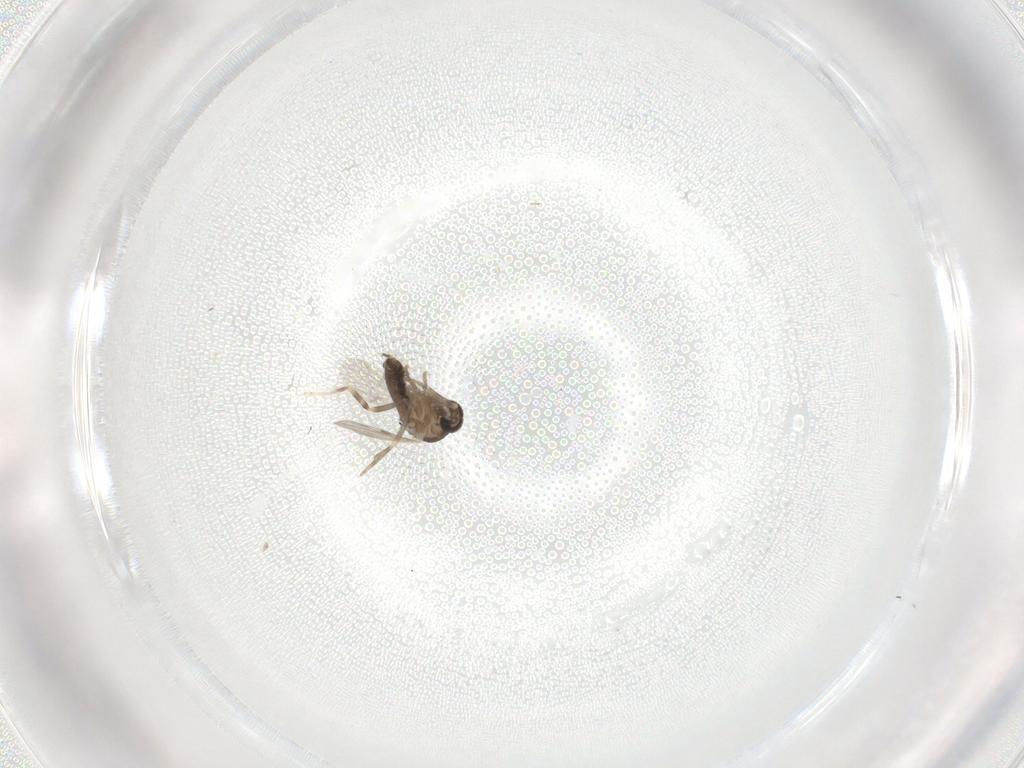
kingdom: Animalia
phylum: Arthropoda
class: Insecta
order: Diptera
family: Ceratopogonidae
